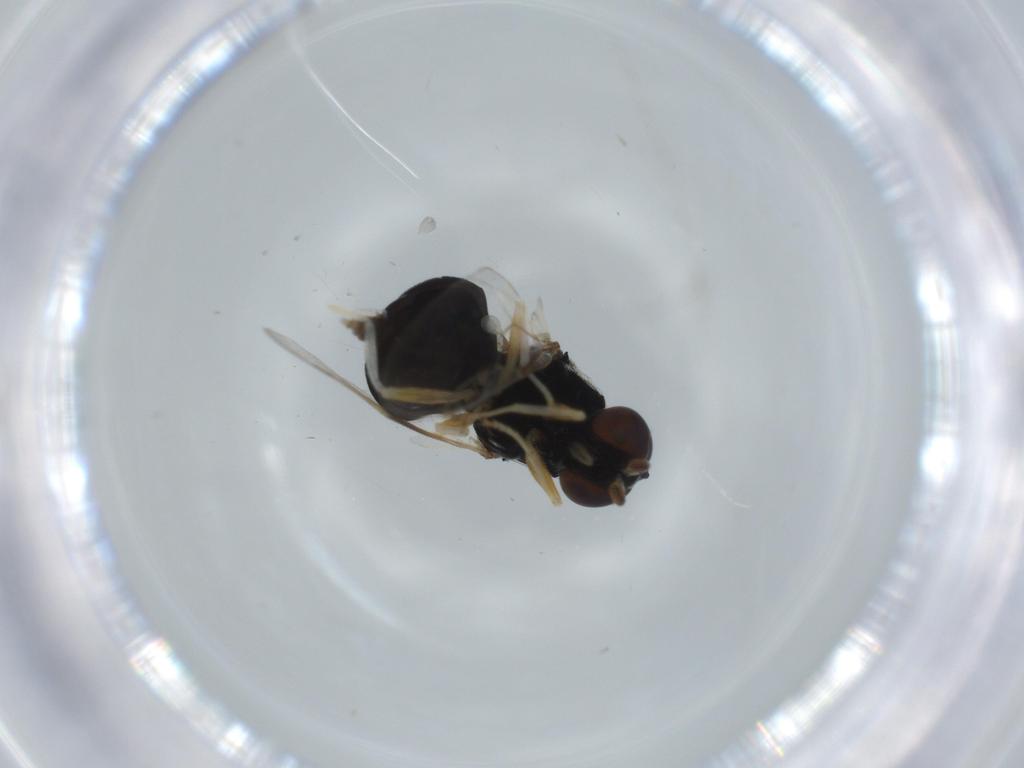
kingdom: Animalia
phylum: Arthropoda
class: Insecta
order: Diptera
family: Stratiomyidae
